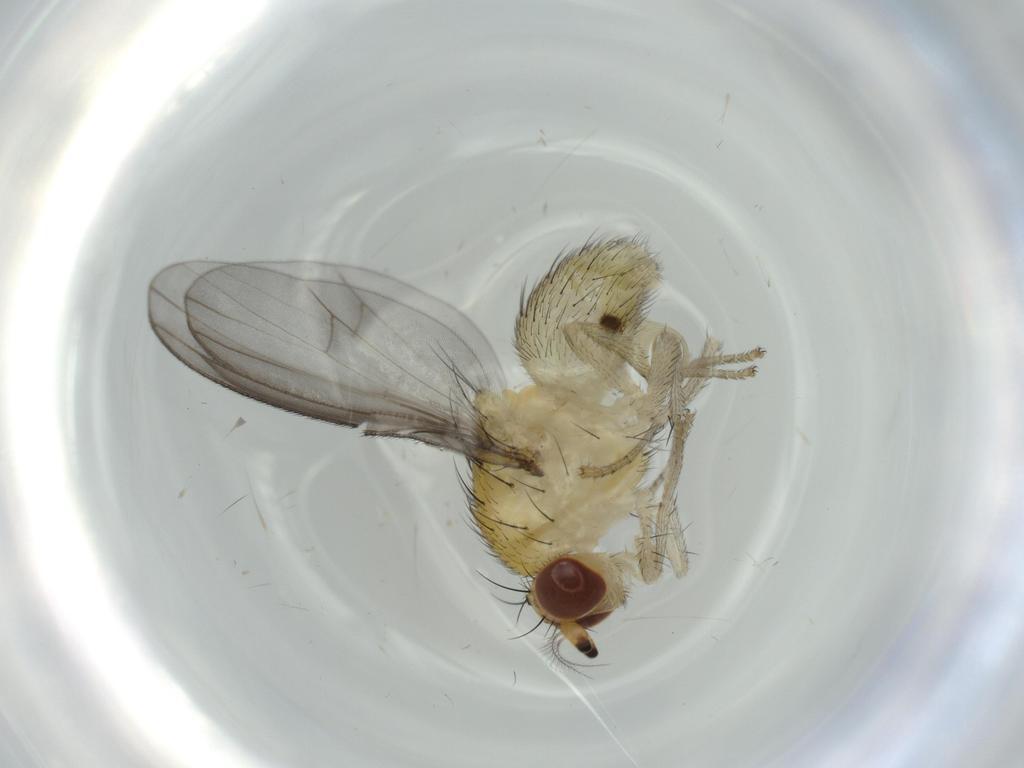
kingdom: Animalia
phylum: Arthropoda
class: Insecta
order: Diptera
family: Lauxaniidae
